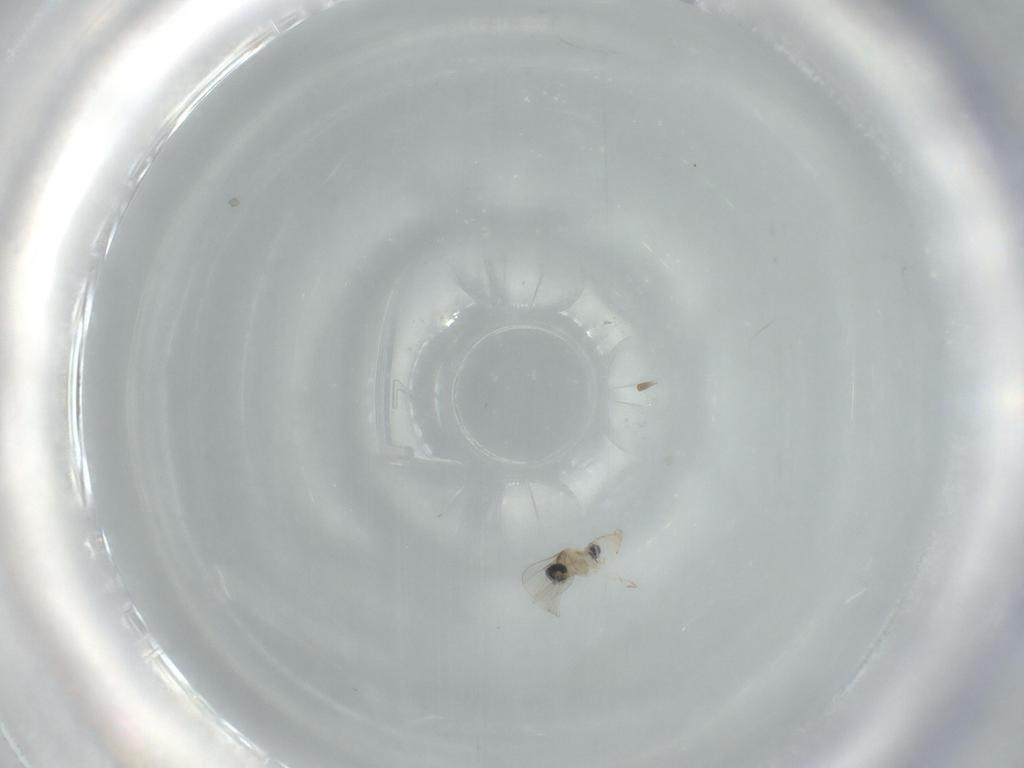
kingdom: Animalia
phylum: Arthropoda
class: Insecta
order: Diptera
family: Cecidomyiidae
